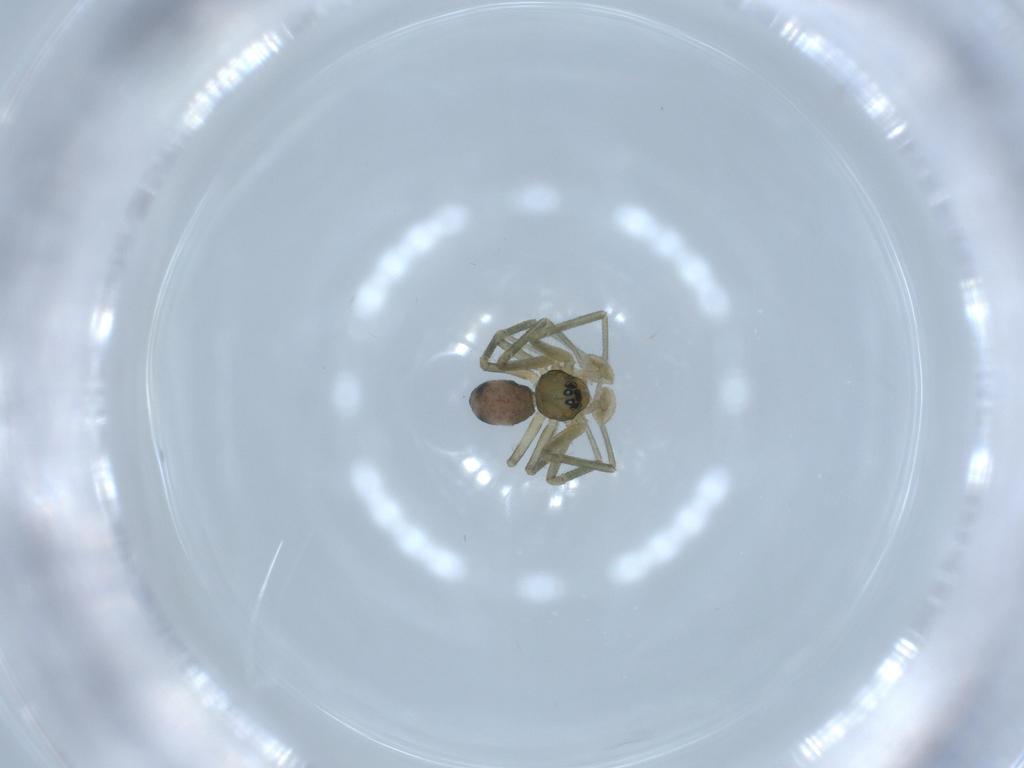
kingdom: Animalia
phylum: Arthropoda
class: Arachnida
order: Araneae
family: Linyphiidae
